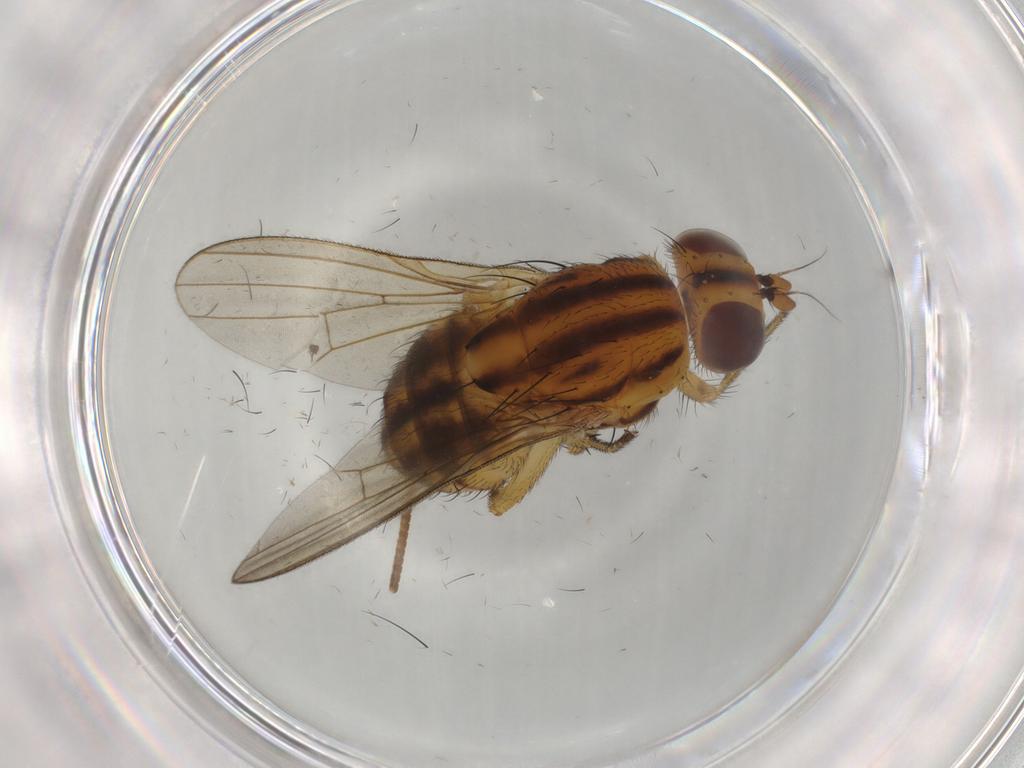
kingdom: Animalia
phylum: Arthropoda
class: Insecta
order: Diptera
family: Dolichopodidae
